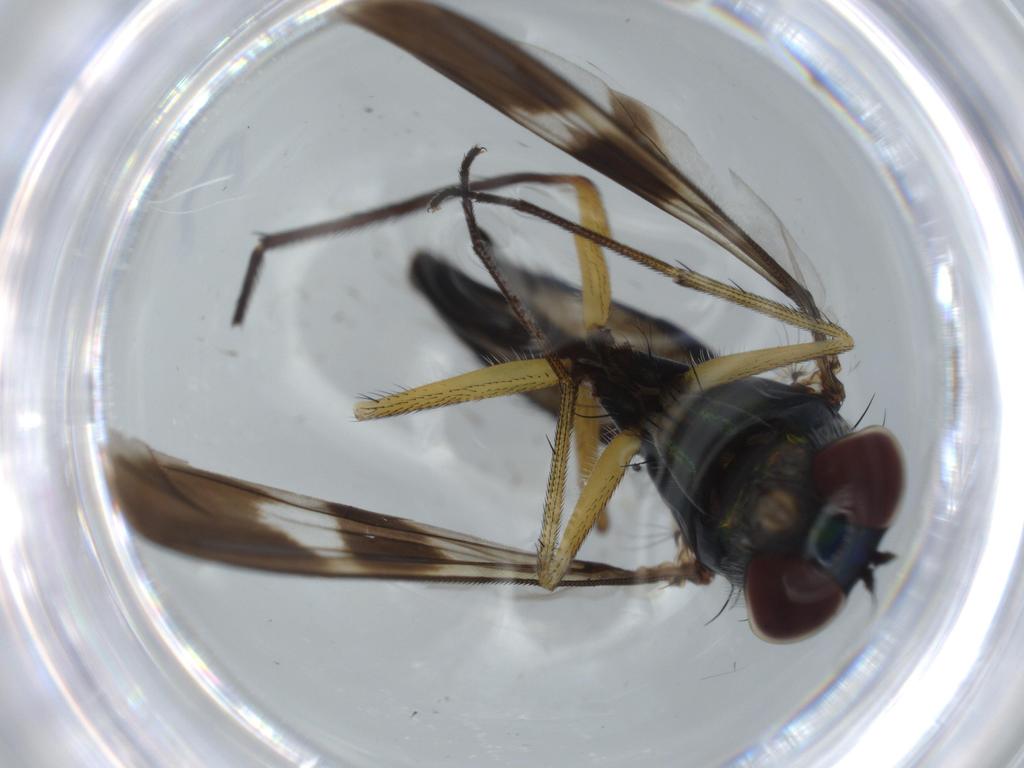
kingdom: Animalia
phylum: Arthropoda
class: Insecta
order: Diptera
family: Dolichopodidae
